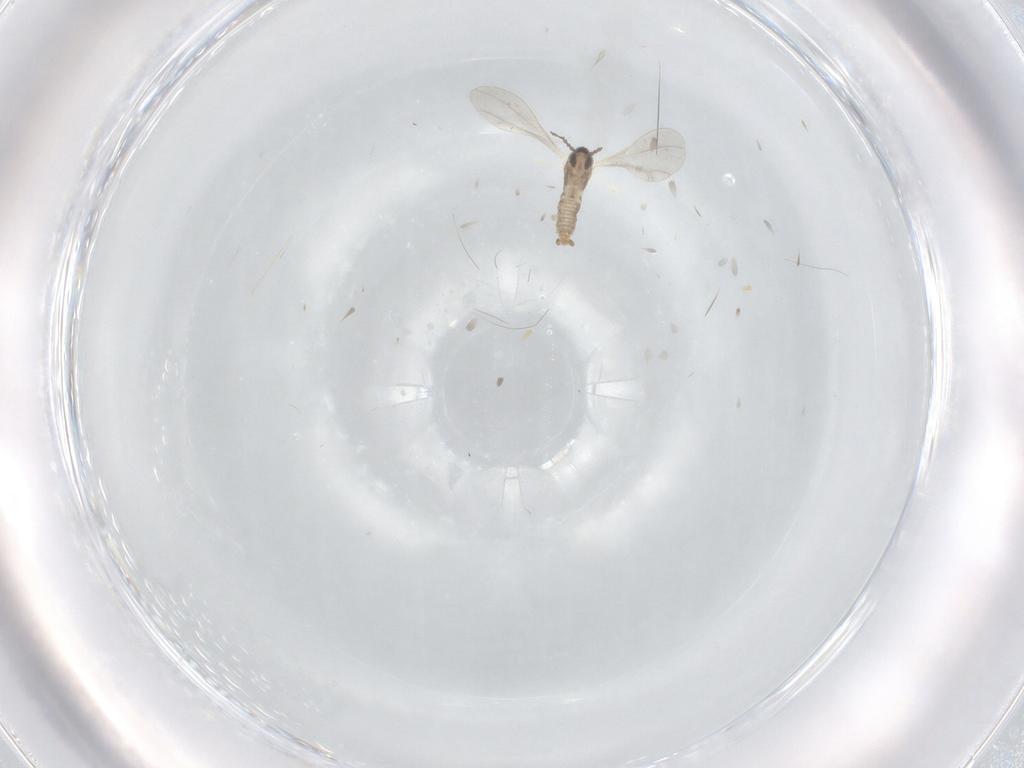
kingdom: Animalia
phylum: Arthropoda
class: Insecta
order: Diptera
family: Cecidomyiidae
